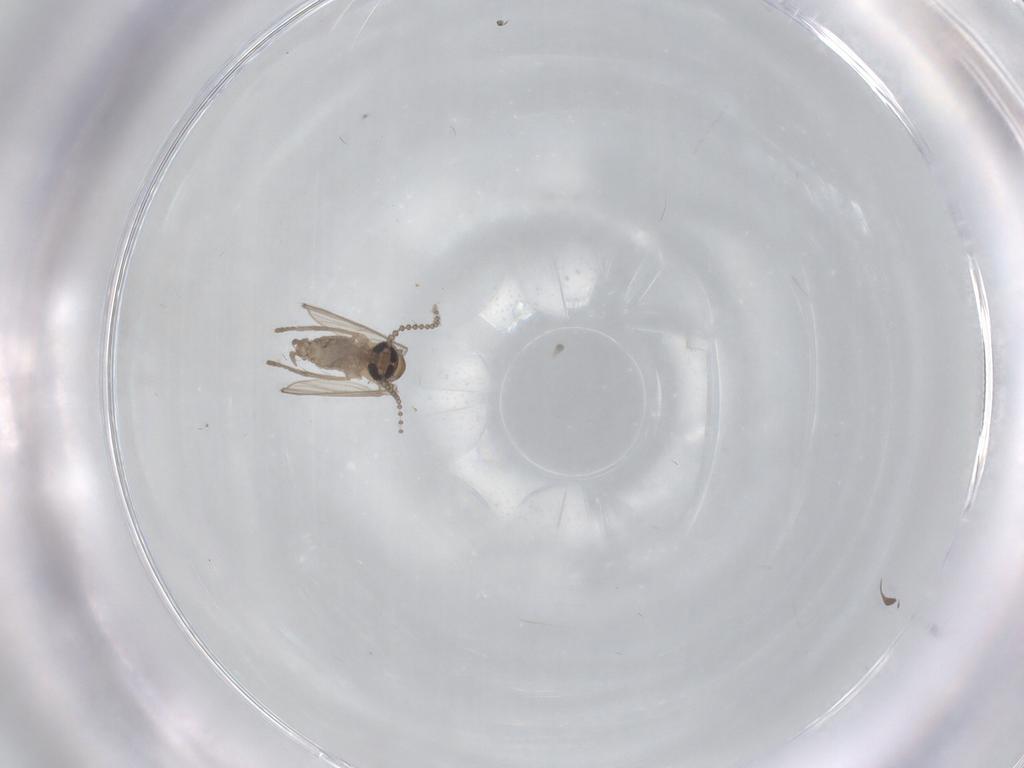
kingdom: Animalia
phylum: Arthropoda
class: Insecta
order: Diptera
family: Psychodidae
